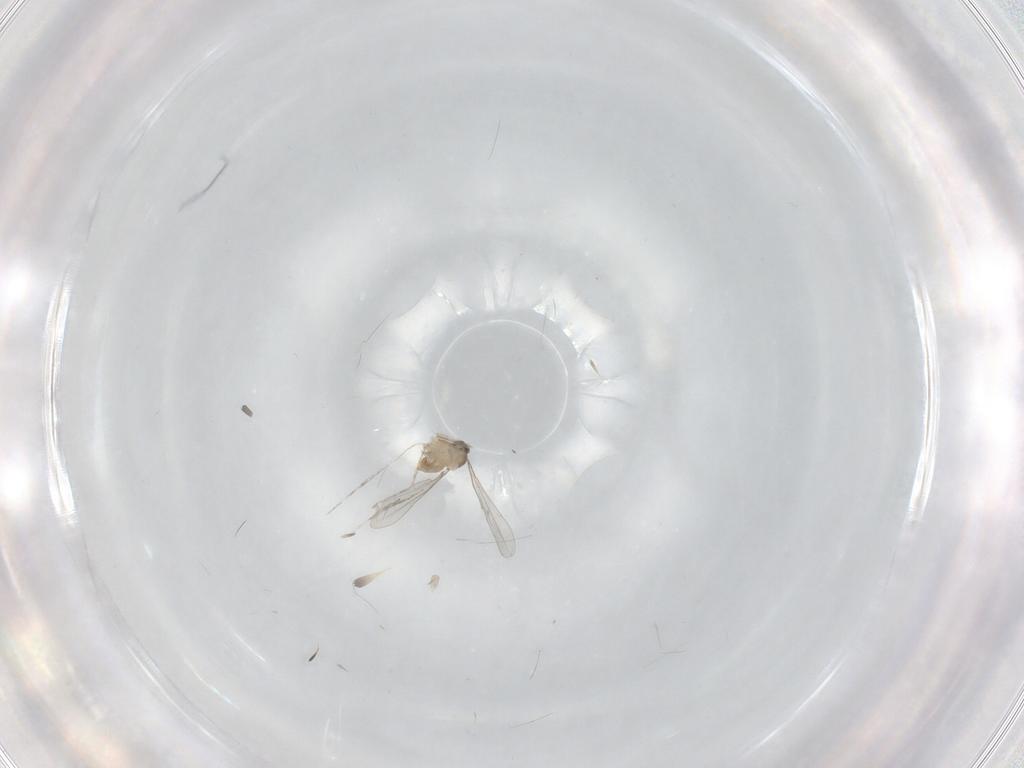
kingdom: Animalia
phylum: Arthropoda
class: Insecta
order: Diptera
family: Cecidomyiidae
